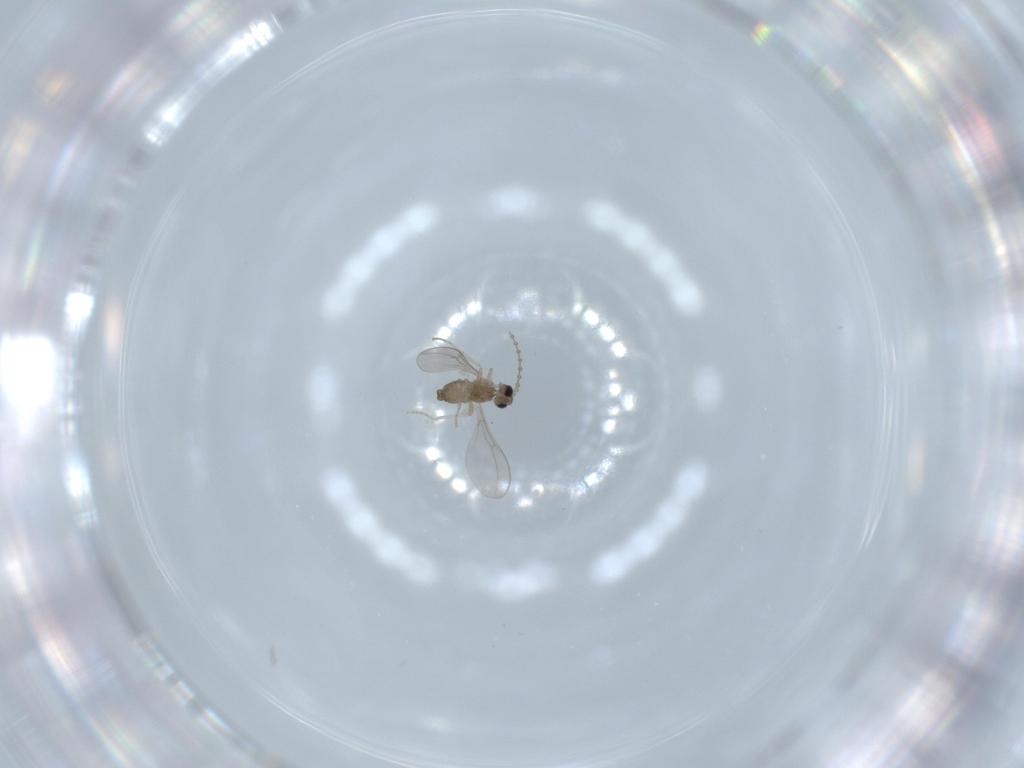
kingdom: Animalia
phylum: Arthropoda
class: Insecta
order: Diptera
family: Cecidomyiidae
